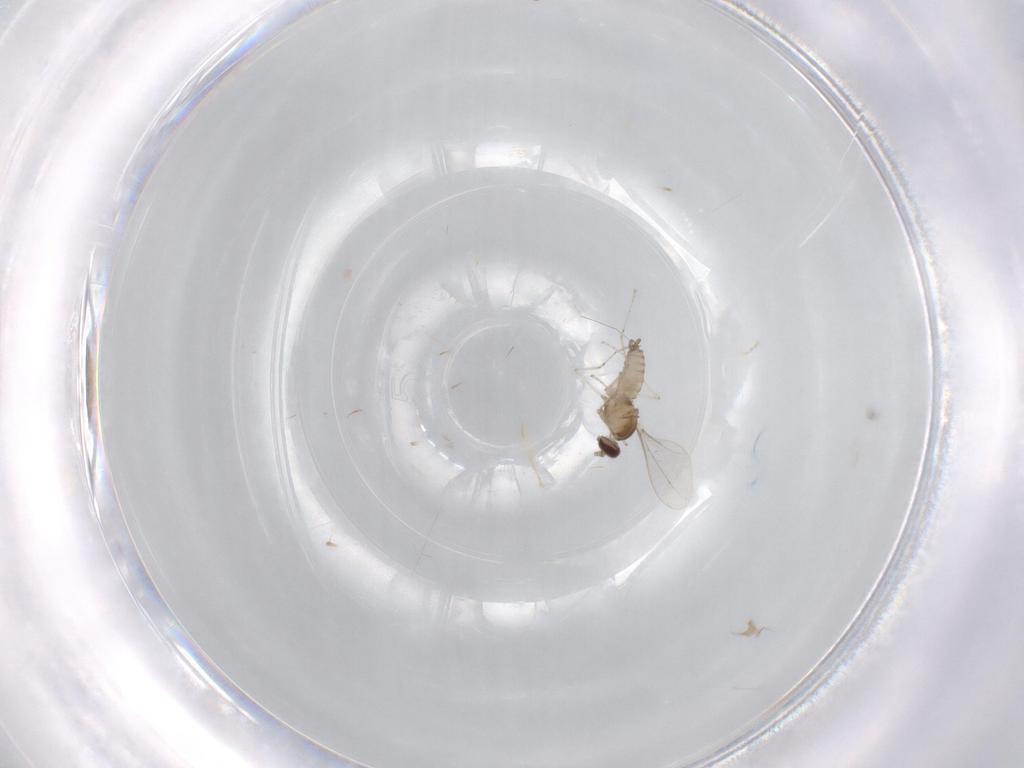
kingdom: Animalia
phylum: Arthropoda
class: Insecta
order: Diptera
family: Cecidomyiidae
